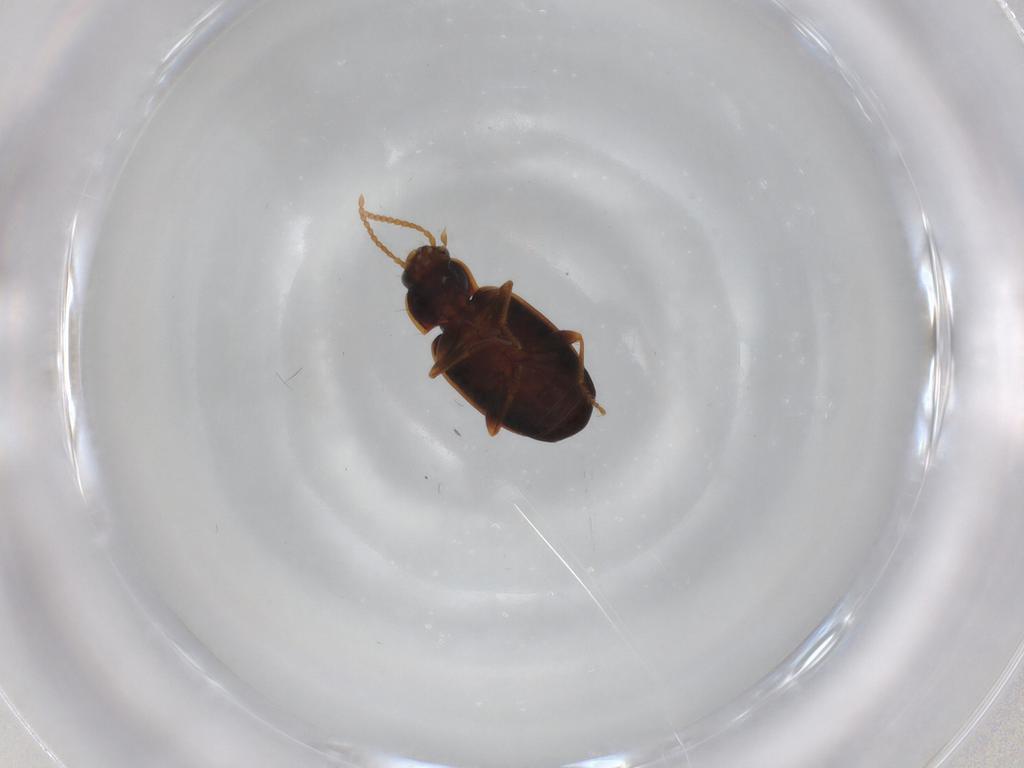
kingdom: Animalia
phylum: Arthropoda
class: Insecta
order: Coleoptera
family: Carabidae
